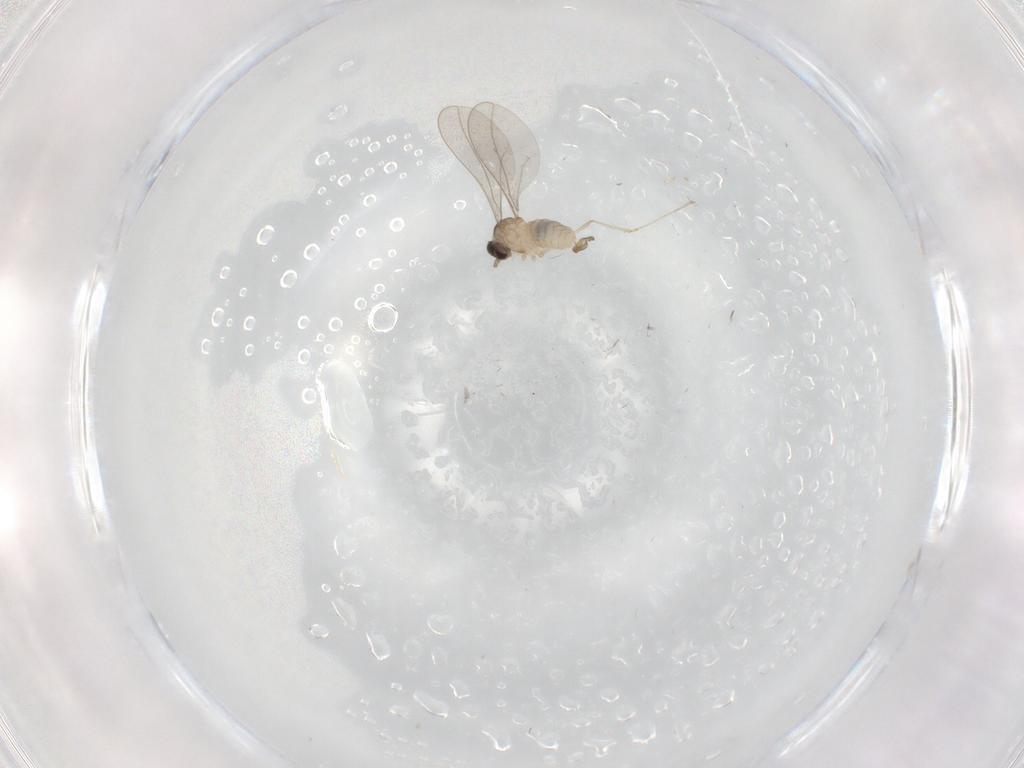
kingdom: Animalia
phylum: Arthropoda
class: Insecta
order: Diptera
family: Cecidomyiidae
